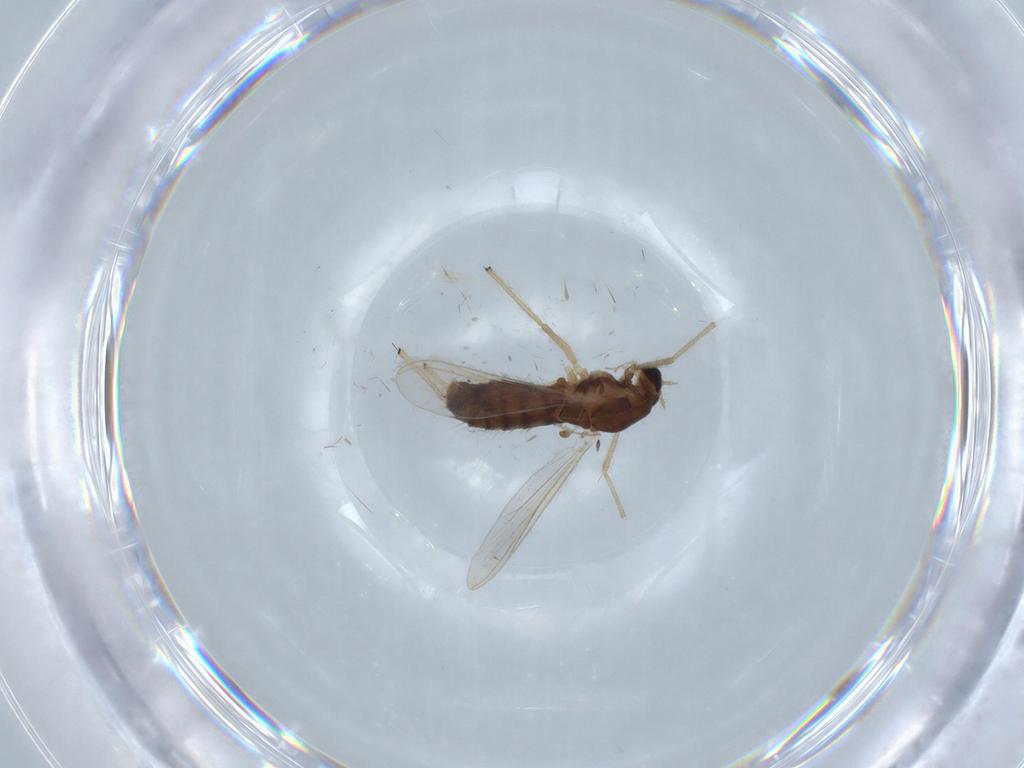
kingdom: Animalia
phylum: Arthropoda
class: Insecta
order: Diptera
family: Chironomidae
